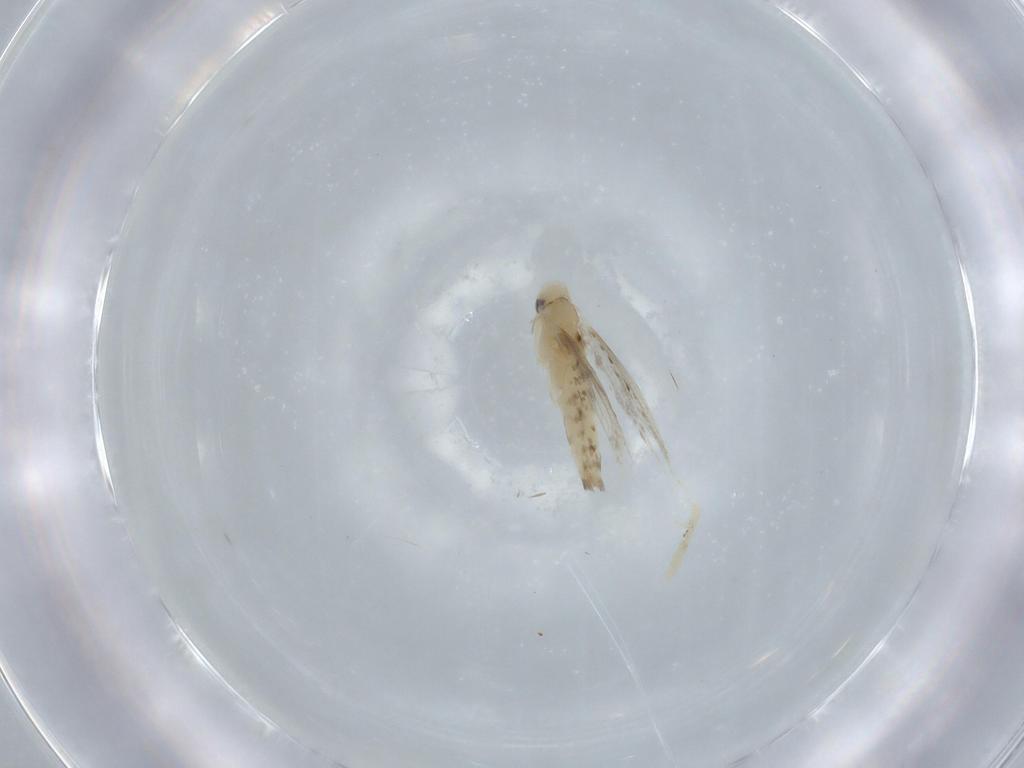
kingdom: Animalia
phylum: Arthropoda
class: Insecta
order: Lepidoptera
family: Gracillariidae
